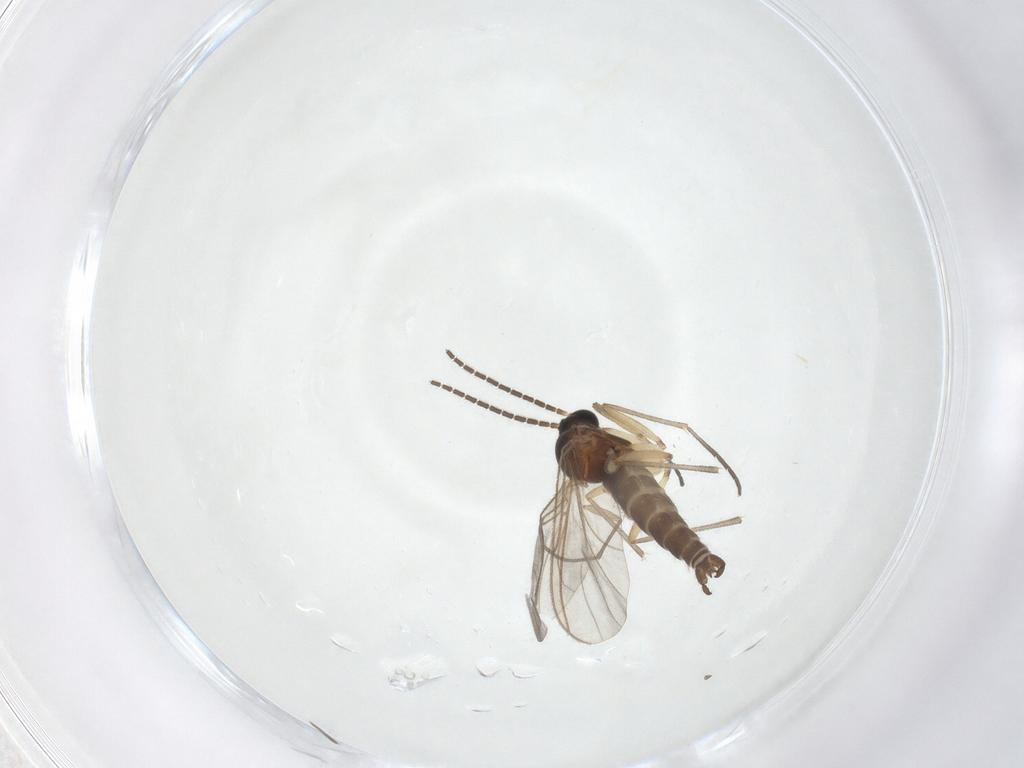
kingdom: Animalia
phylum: Arthropoda
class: Insecta
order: Diptera
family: Sciaridae
